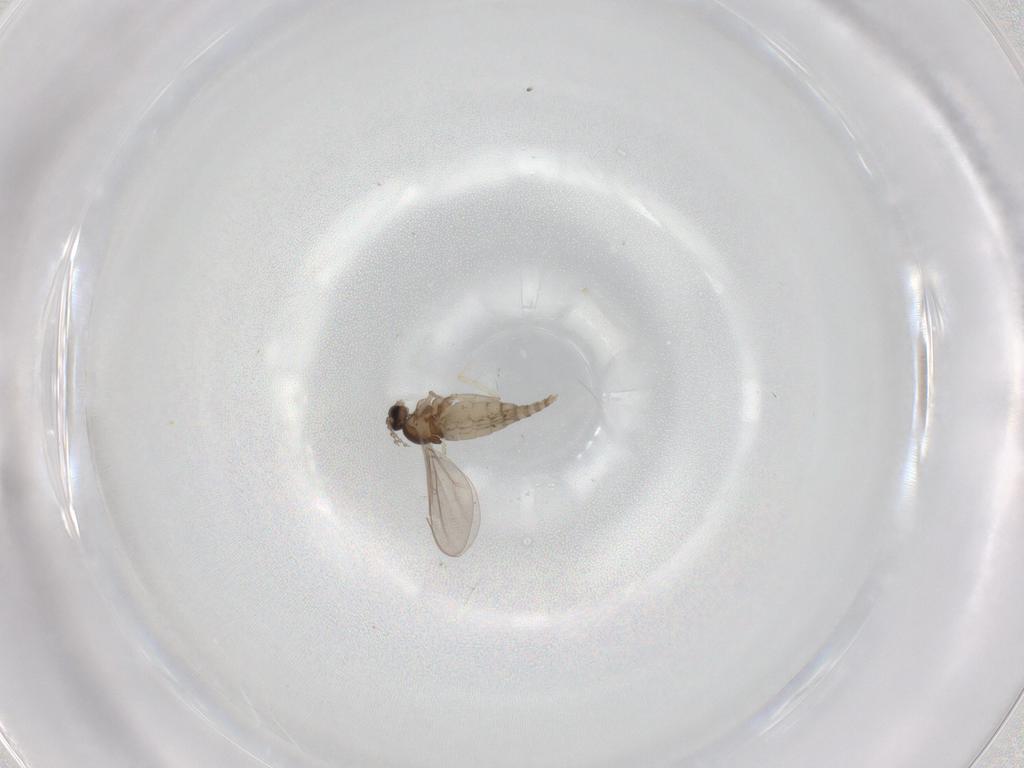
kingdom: Animalia
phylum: Arthropoda
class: Insecta
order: Diptera
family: Cecidomyiidae
